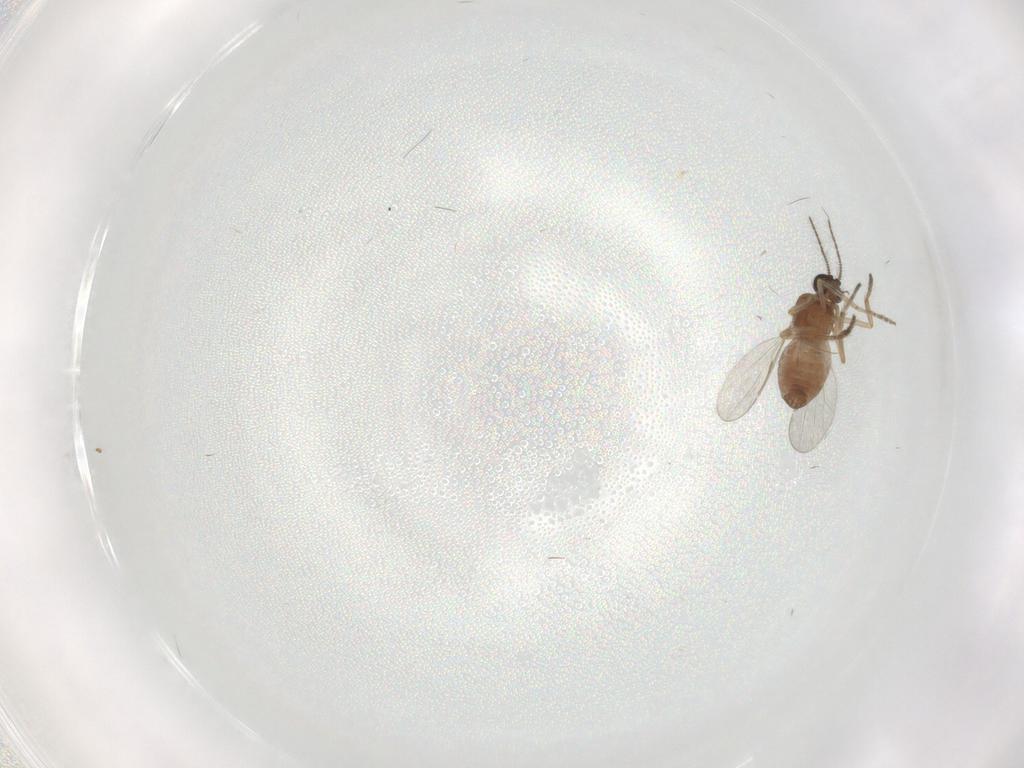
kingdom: Animalia
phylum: Arthropoda
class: Insecta
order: Diptera
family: Ceratopogonidae
